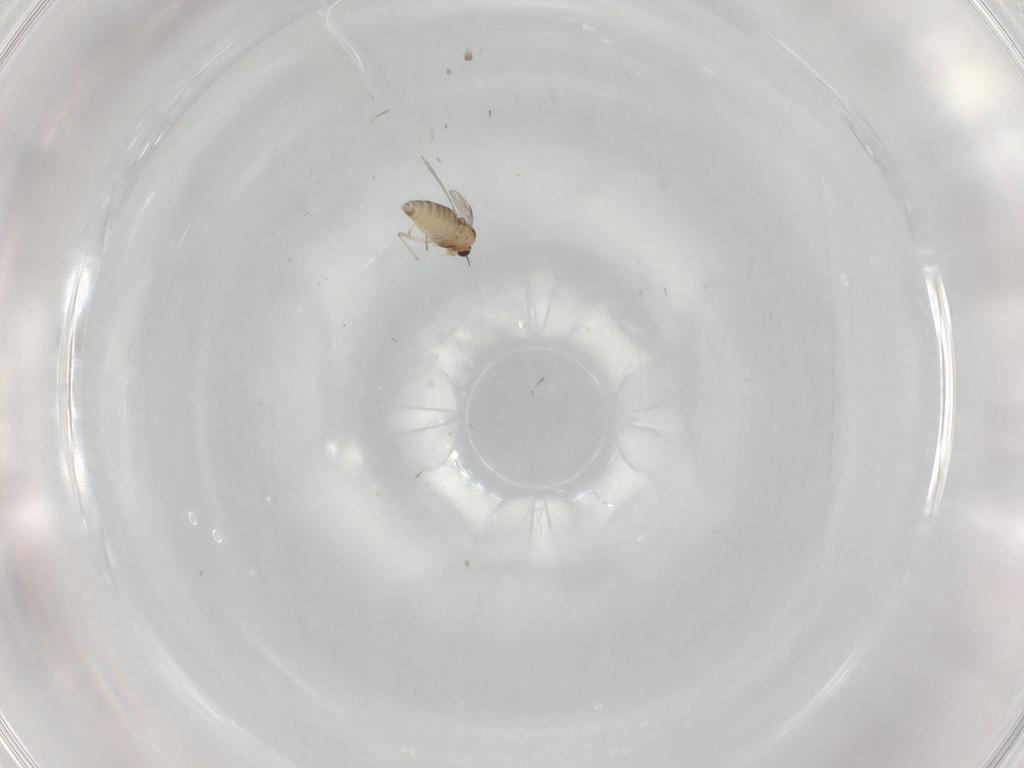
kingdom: Animalia
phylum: Arthropoda
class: Insecta
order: Diptera
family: Chironomidae
